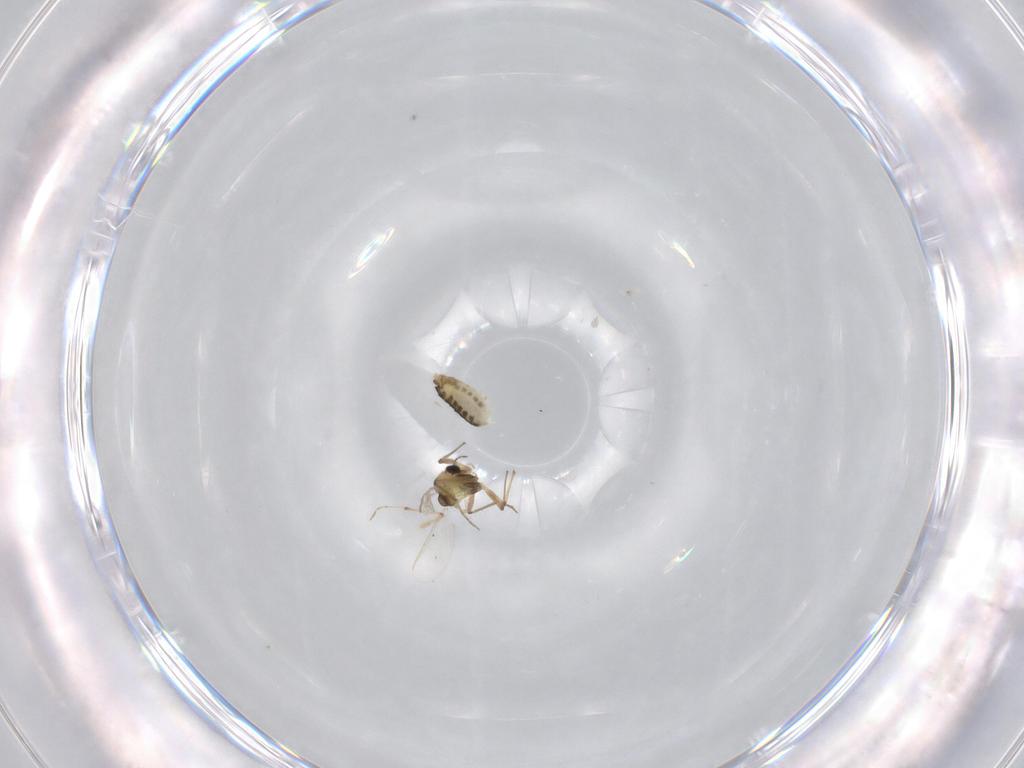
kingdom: Animalia
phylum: Arthropoda
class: Insecta
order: Diptera
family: Chironomidae
